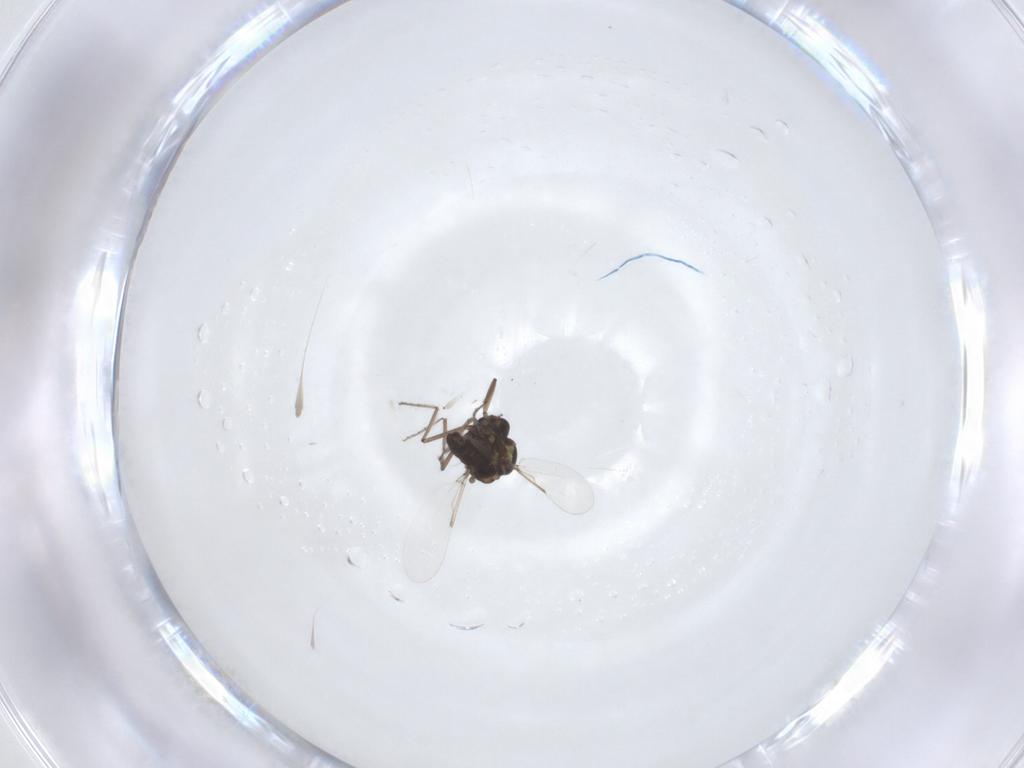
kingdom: Animalia
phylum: Arthropoda
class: Insecta
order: Diptera
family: Ceratopogonidae
